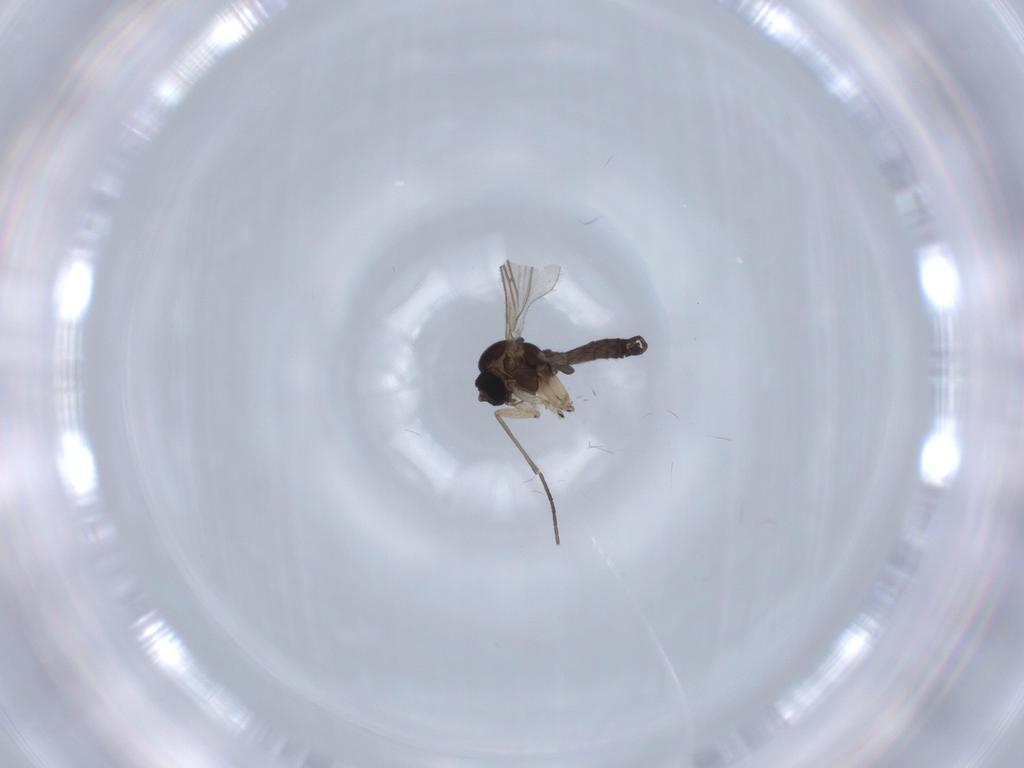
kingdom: Animalia
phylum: Arthropoda
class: Insecta
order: Diptera
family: Sciaridae
